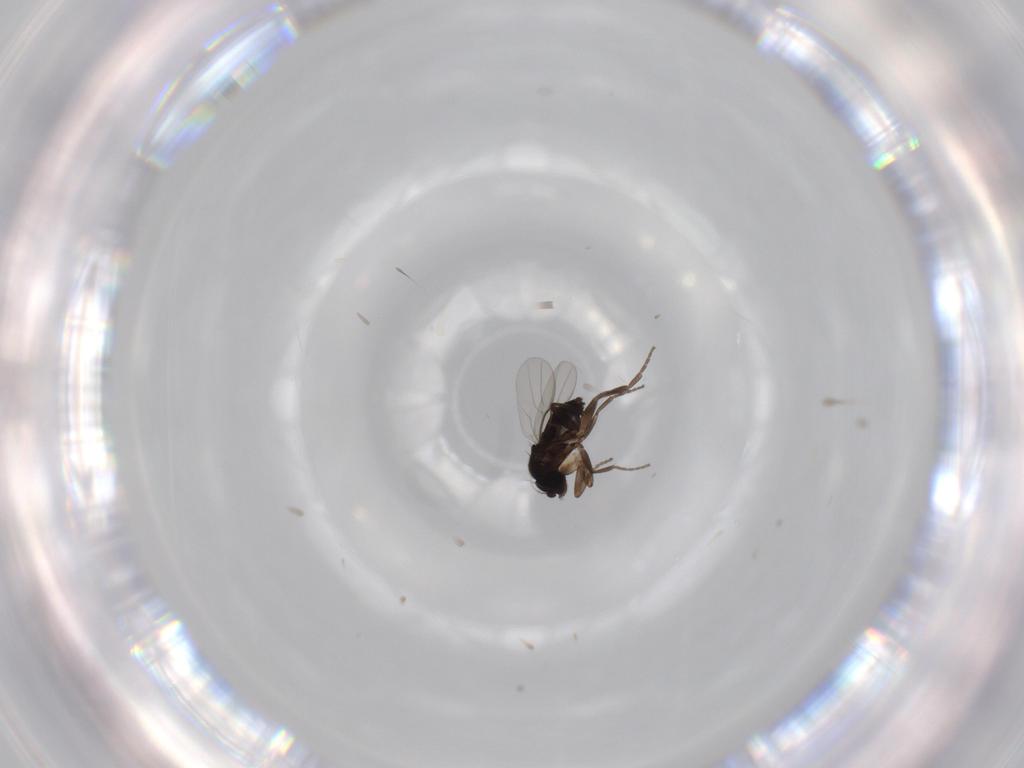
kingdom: Animalia
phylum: Arthropoda
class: Insecta
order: Diptera
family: Phoridae
